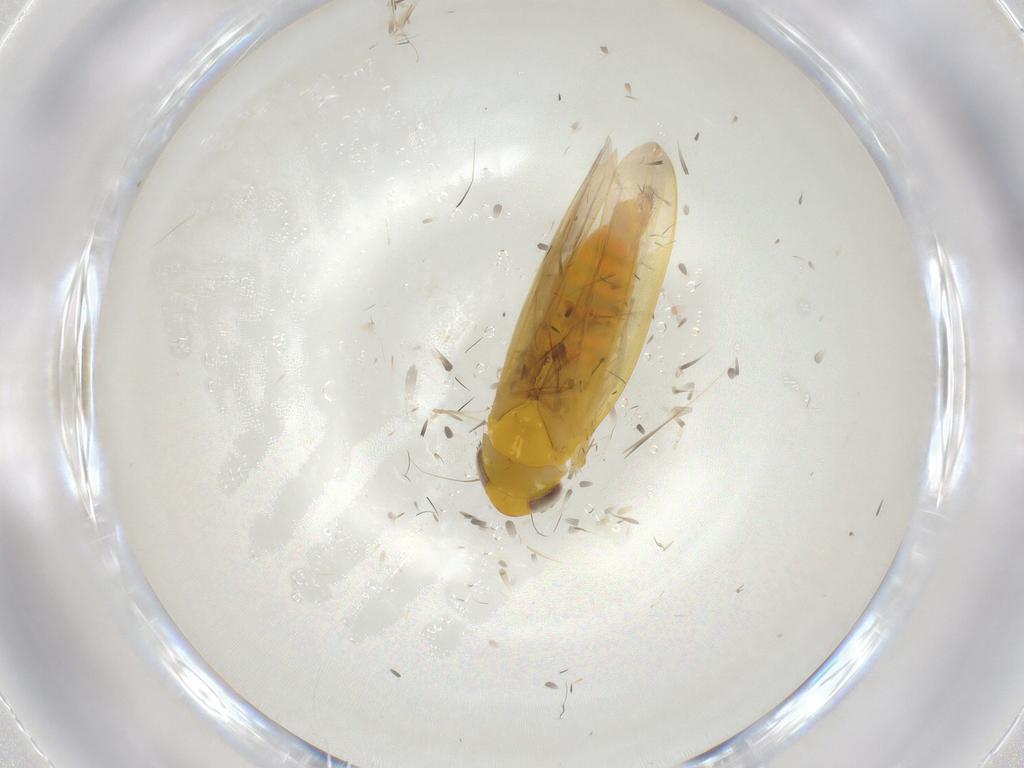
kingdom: Animalia
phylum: Arthropoda
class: Insecta
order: Hemiptera
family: Cicadellidae
